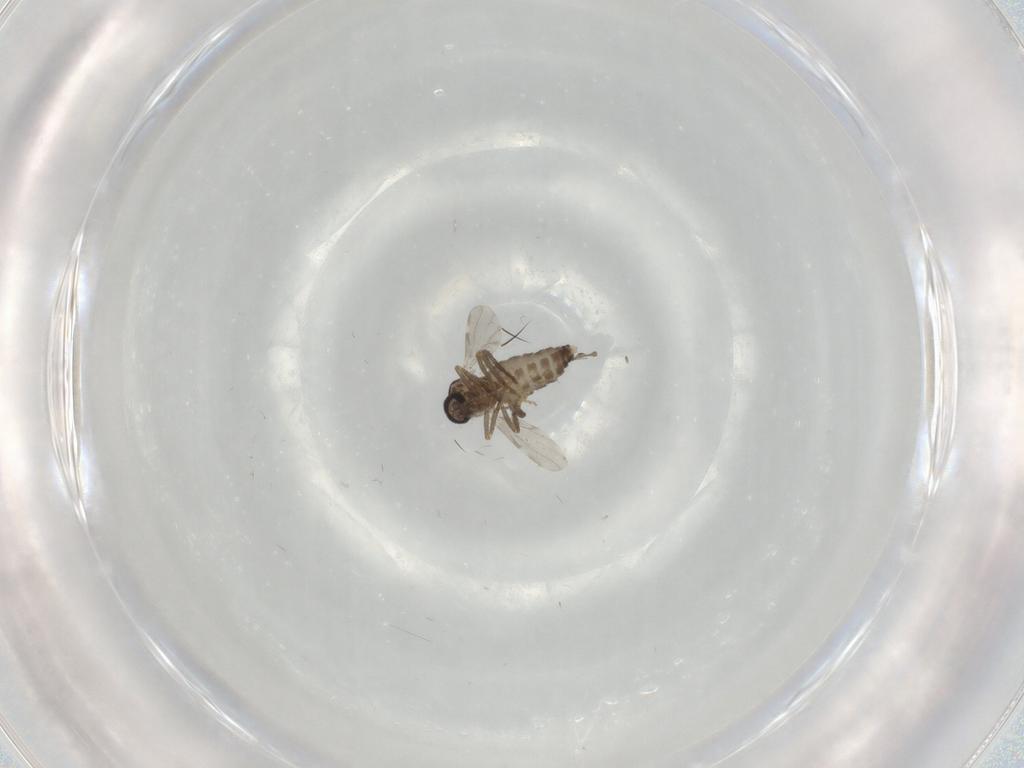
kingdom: Animalia
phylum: Arthropoda
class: Insecta
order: Diptera
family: Ceratopogonidae
